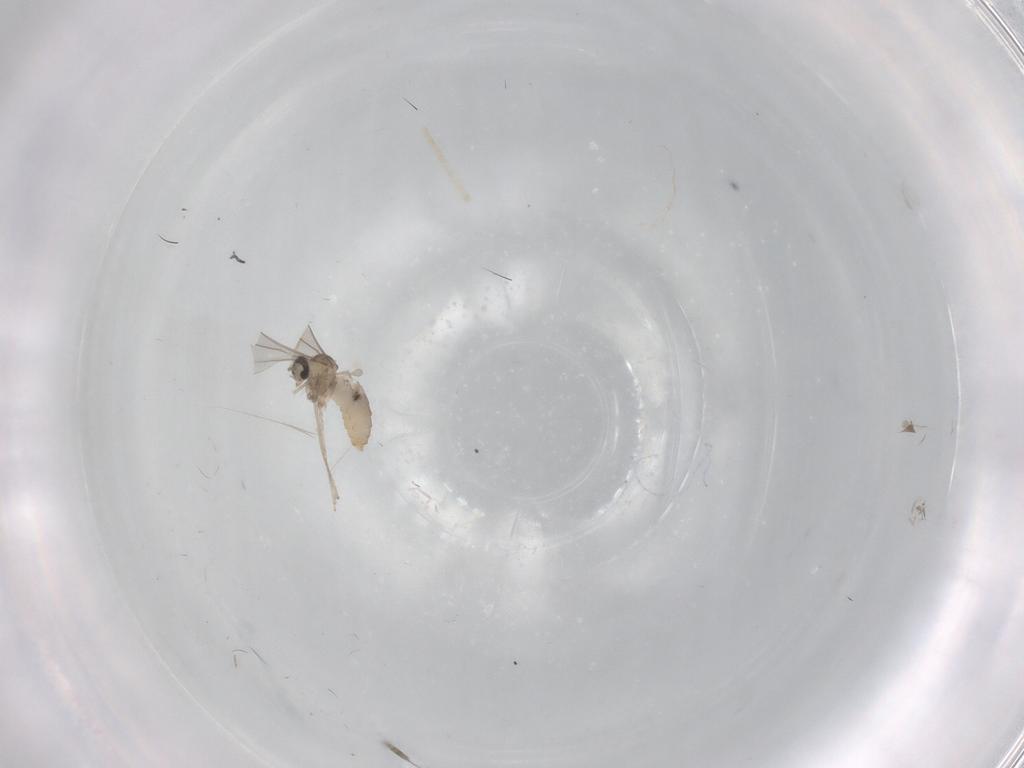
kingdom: Animalia
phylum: Arthropoda
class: Insecta
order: Diptera
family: Cecidomyiidae
